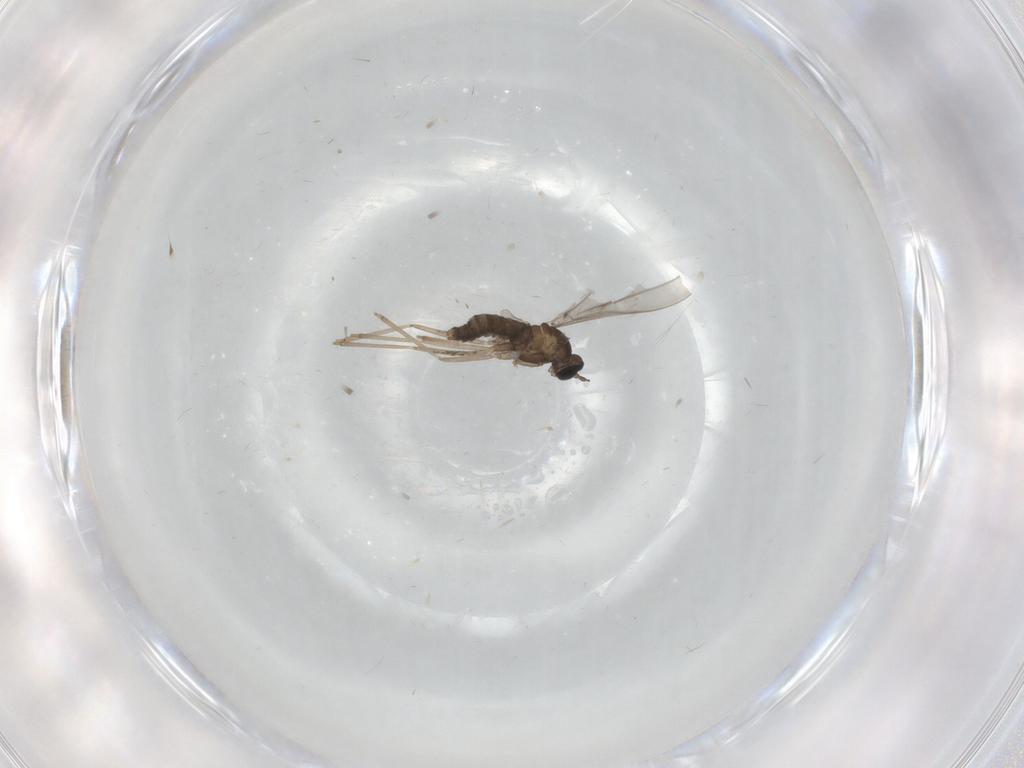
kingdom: Animalia
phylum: Arthropoda
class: Insecta
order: Diptera
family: Cecidomyiidae
